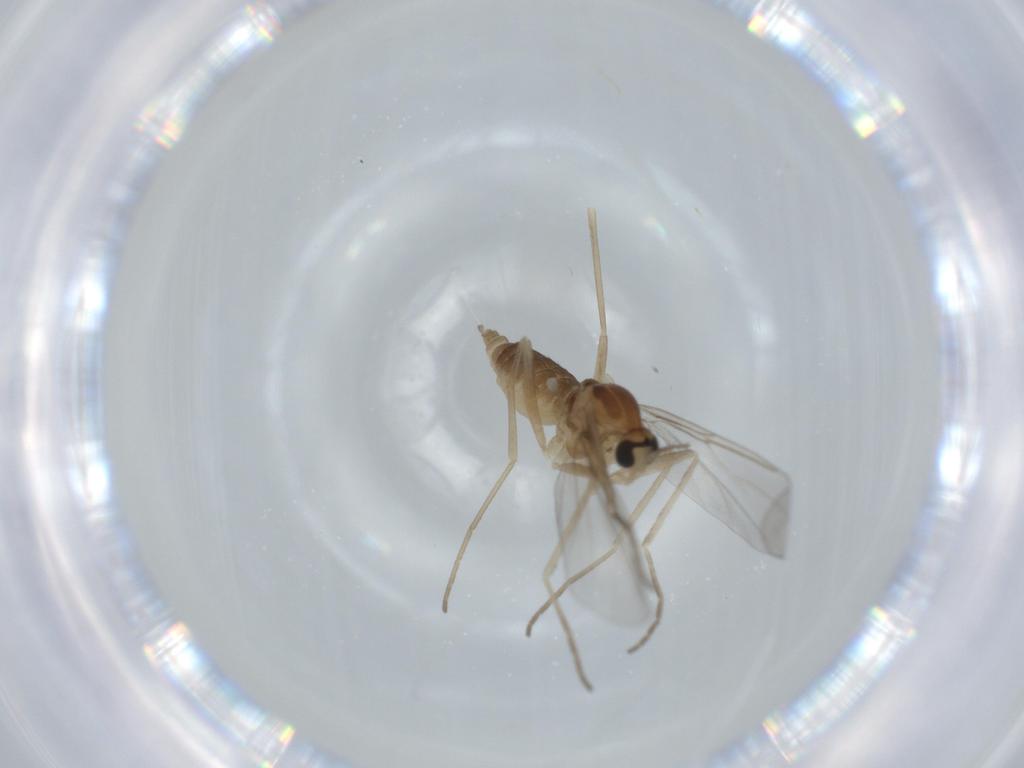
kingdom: Animalia
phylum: Arthropoda
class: Insecta
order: Diptera
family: Cecidomyiidae
